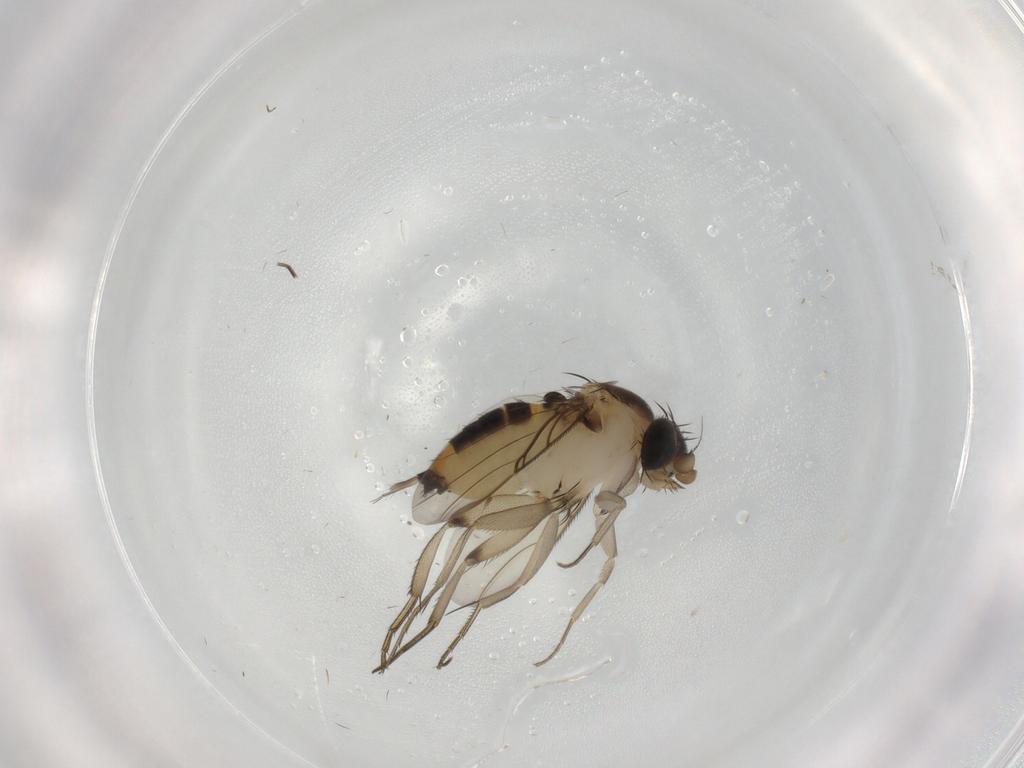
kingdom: Animalia
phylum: Arthropoda
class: Insecta
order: Diptera
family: Phoridae
